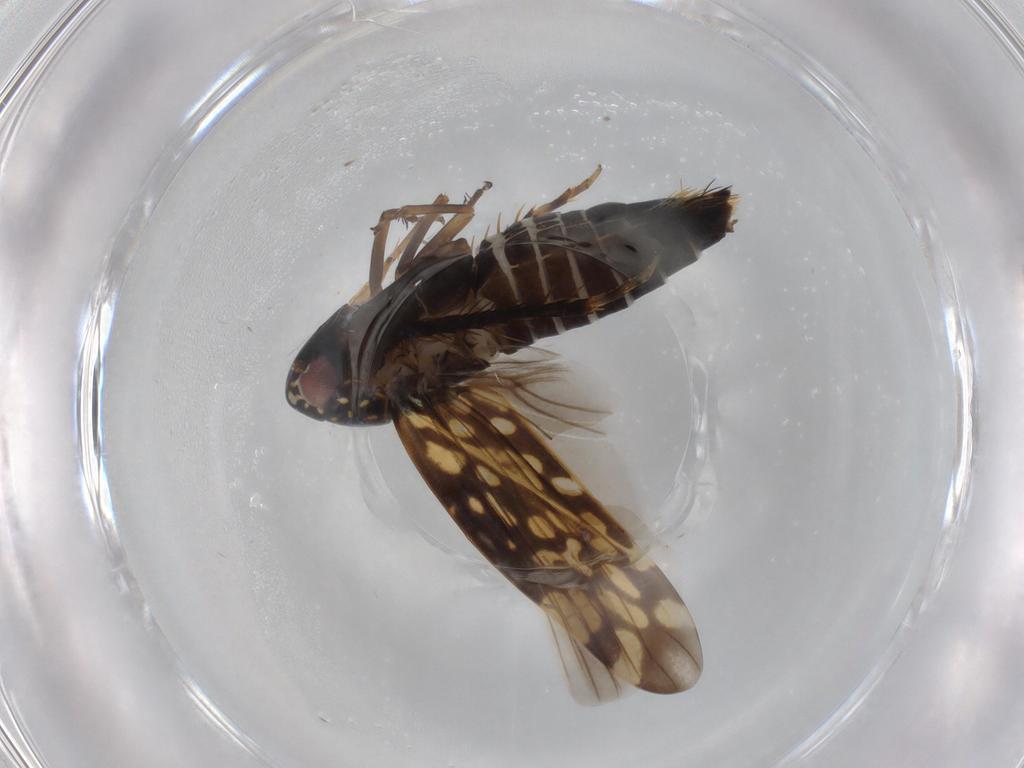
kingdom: Animalia
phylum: Arthropoda
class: Insecta
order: Hemiptera
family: Cicadellidae
